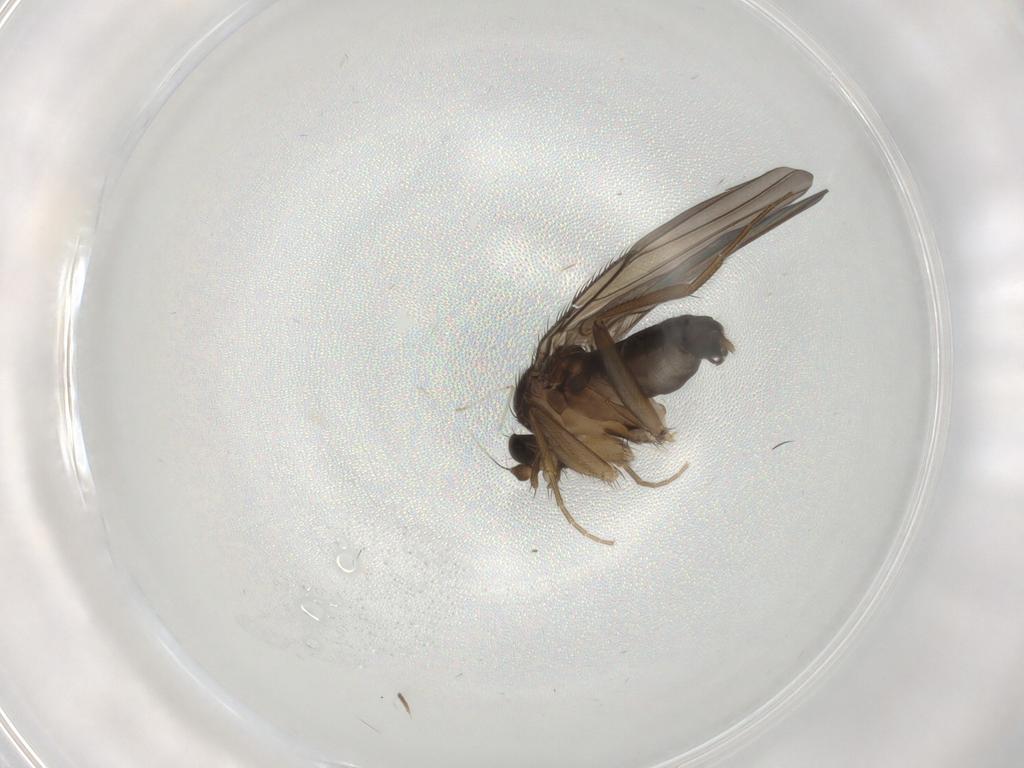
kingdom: Animalia
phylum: Arthropoda
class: Insecta
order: Diptera
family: Phoridae
